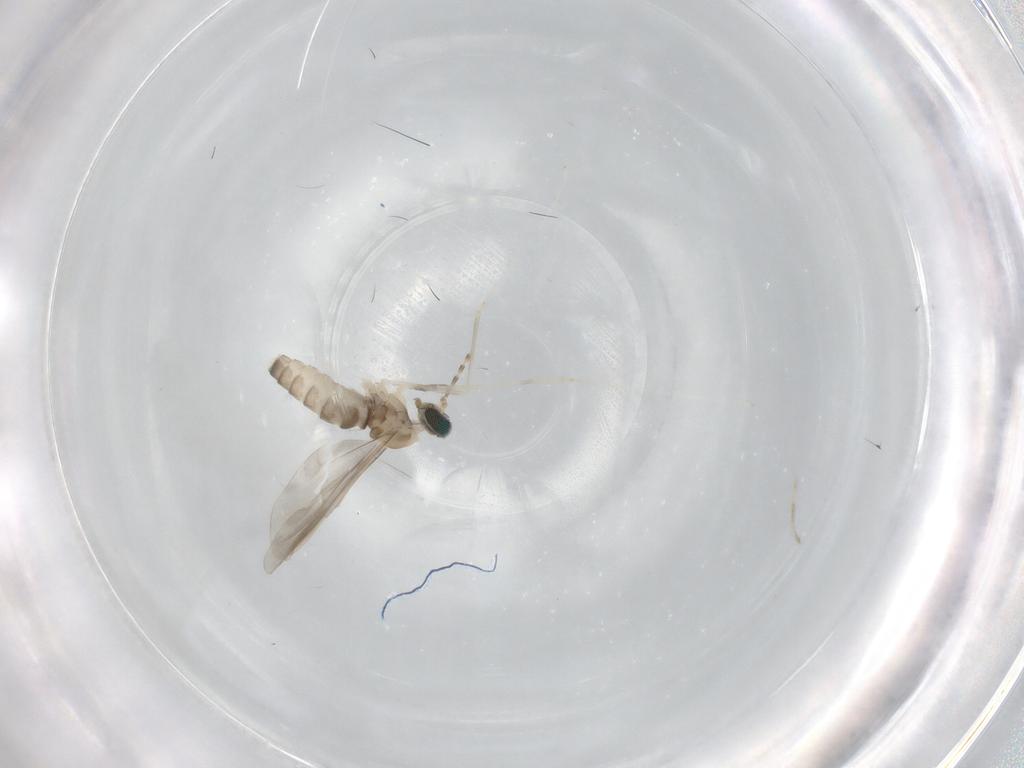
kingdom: Animalia
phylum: Arthropoda
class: Insecta
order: Diptera
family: Cecidomyiidae
